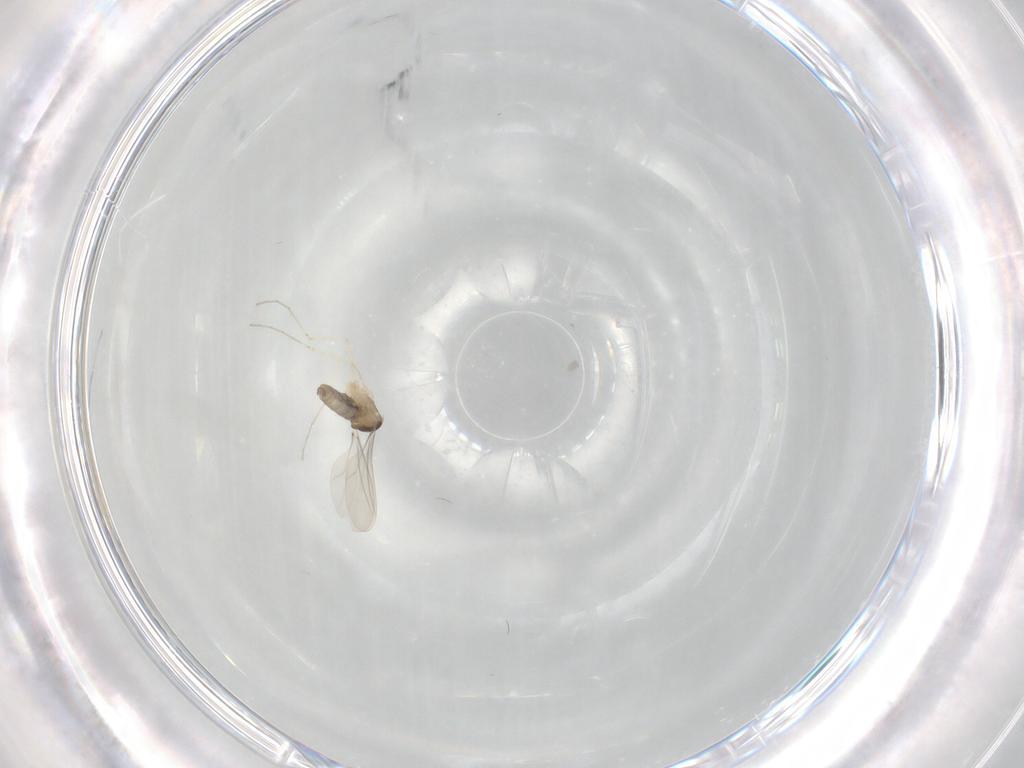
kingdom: Animalia
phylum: Arthropoda
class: Insecta
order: Diptera
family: Cecidomyiidae
